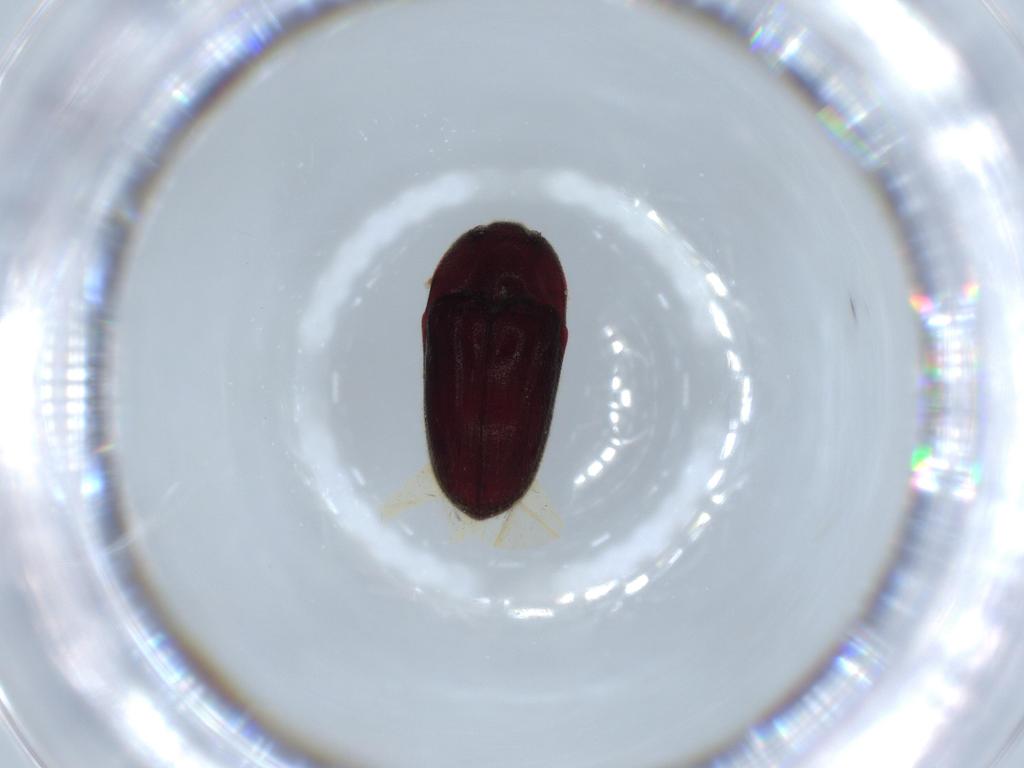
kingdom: Animalia
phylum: Arthropoda
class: Insecta
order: Coleoptera
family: Throscidae
